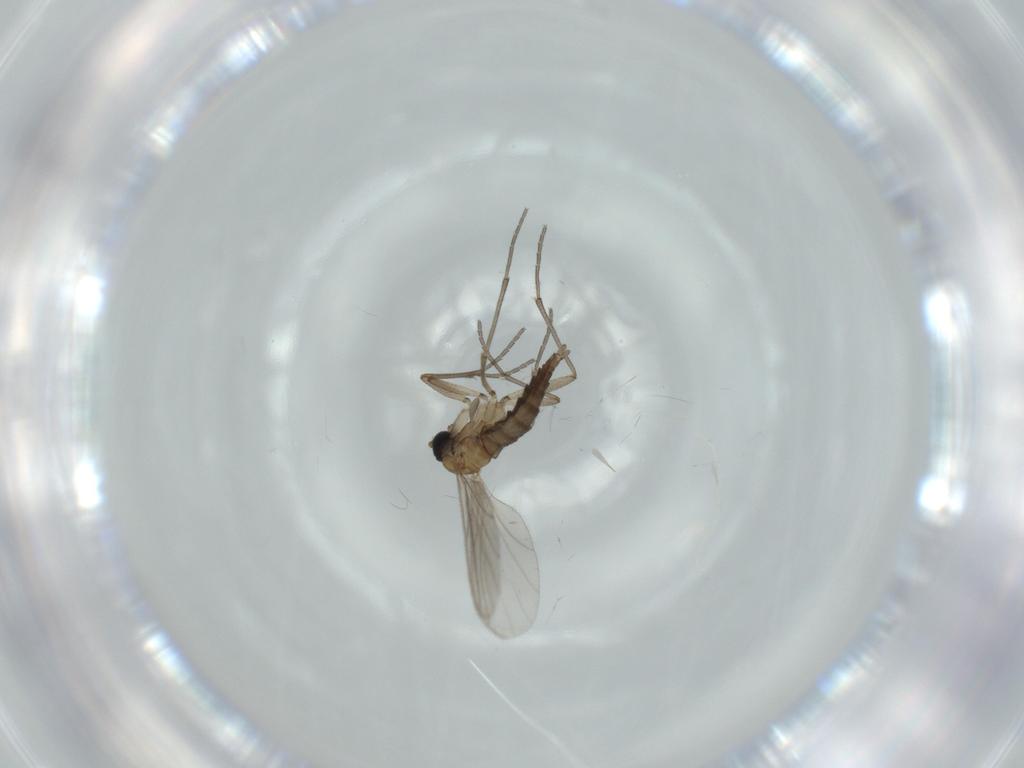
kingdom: Animalia
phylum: Arthropoda
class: Insecta
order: Diptera
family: Sciaridae
